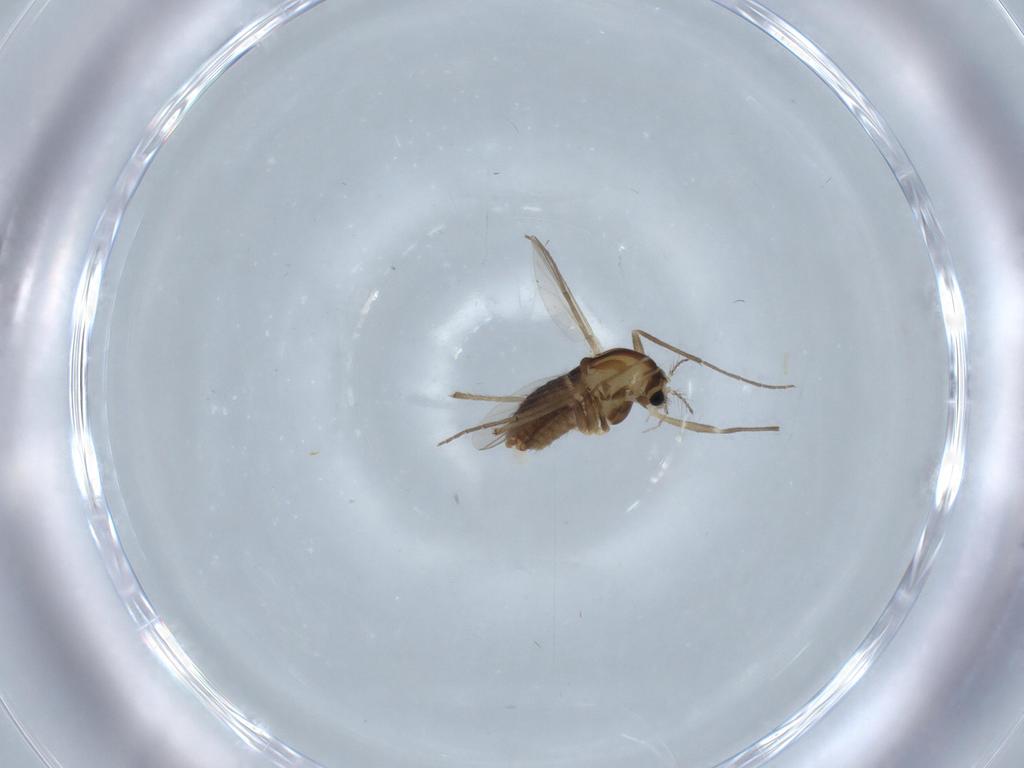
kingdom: Animalia
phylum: Arthropoda
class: Insecta
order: Diptera
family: Chironomidae
